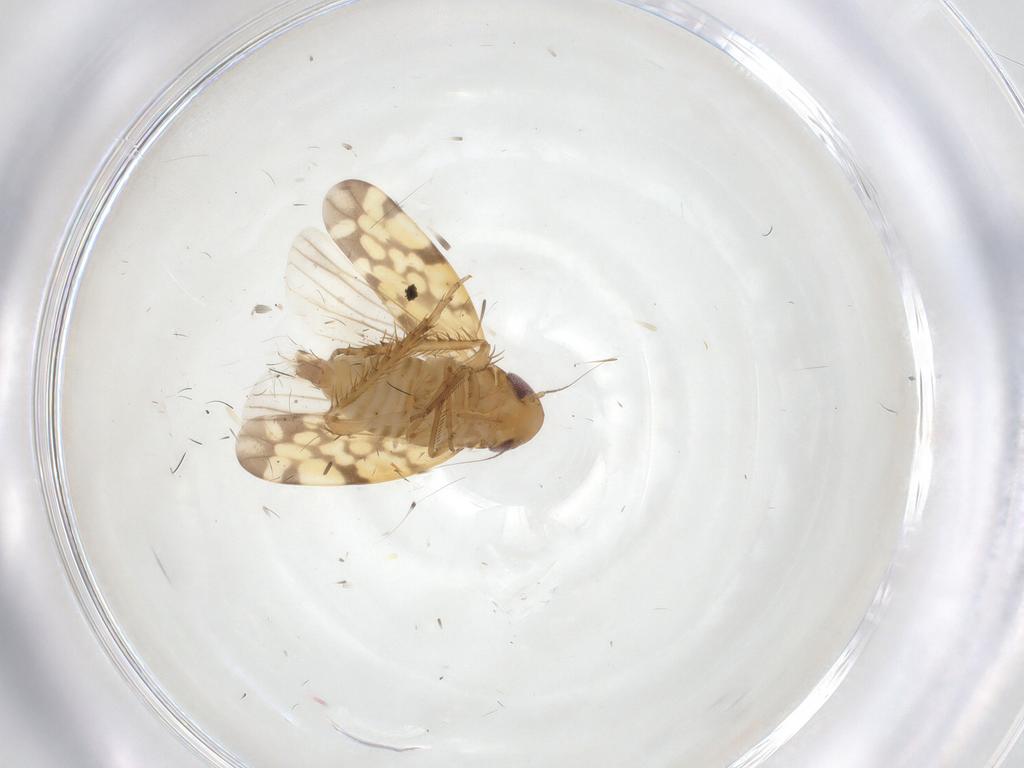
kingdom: Animalia
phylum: Arthropoda
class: Insecta
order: Hemiptera
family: Cicadellidae
